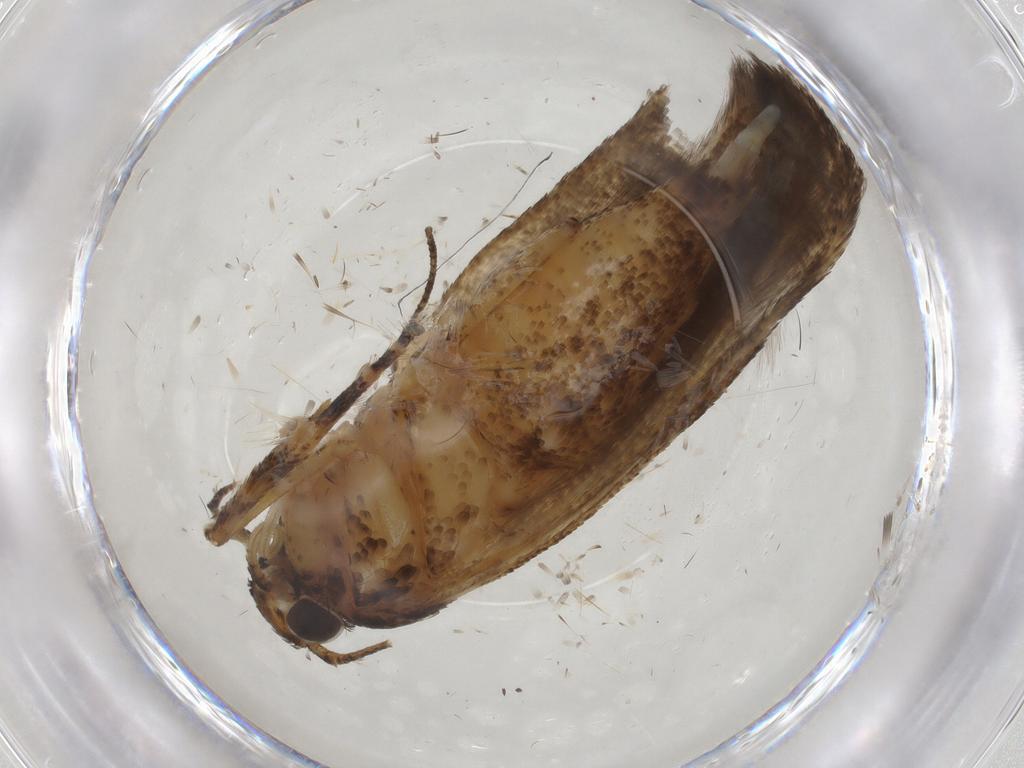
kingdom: Animalia
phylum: Arthropoda
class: Insecta
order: Lepidoptera
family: Gelechiidae
